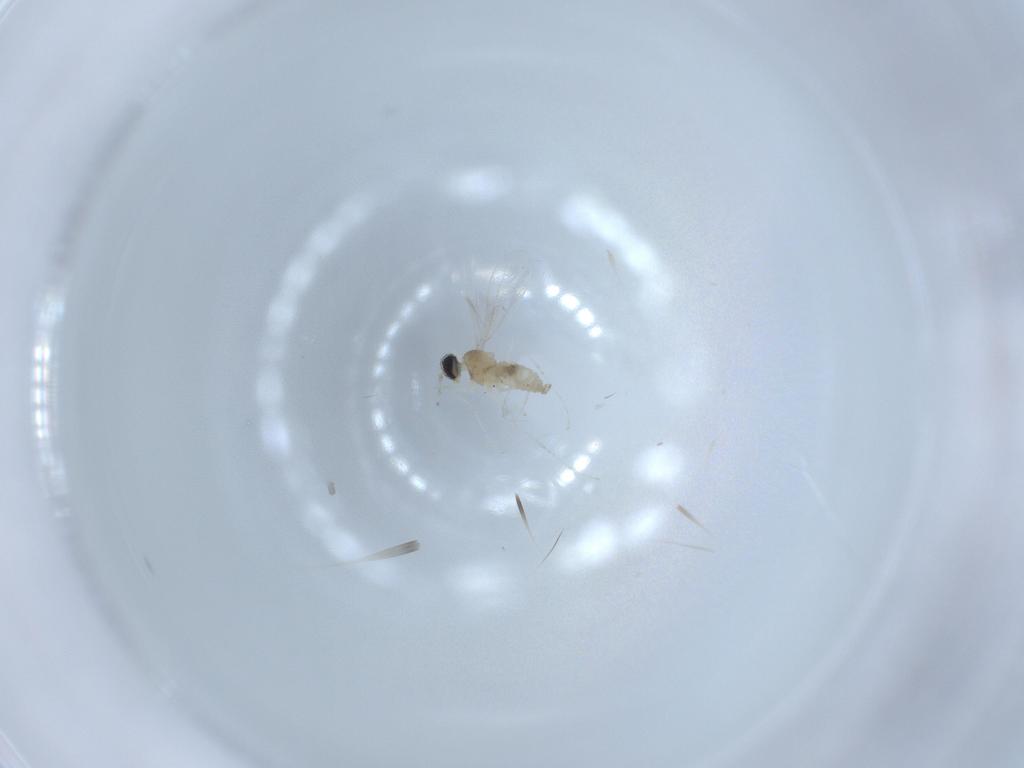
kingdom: Animalia
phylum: Arthropoda
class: Insecta
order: Diptera
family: Cecidomyiidae
